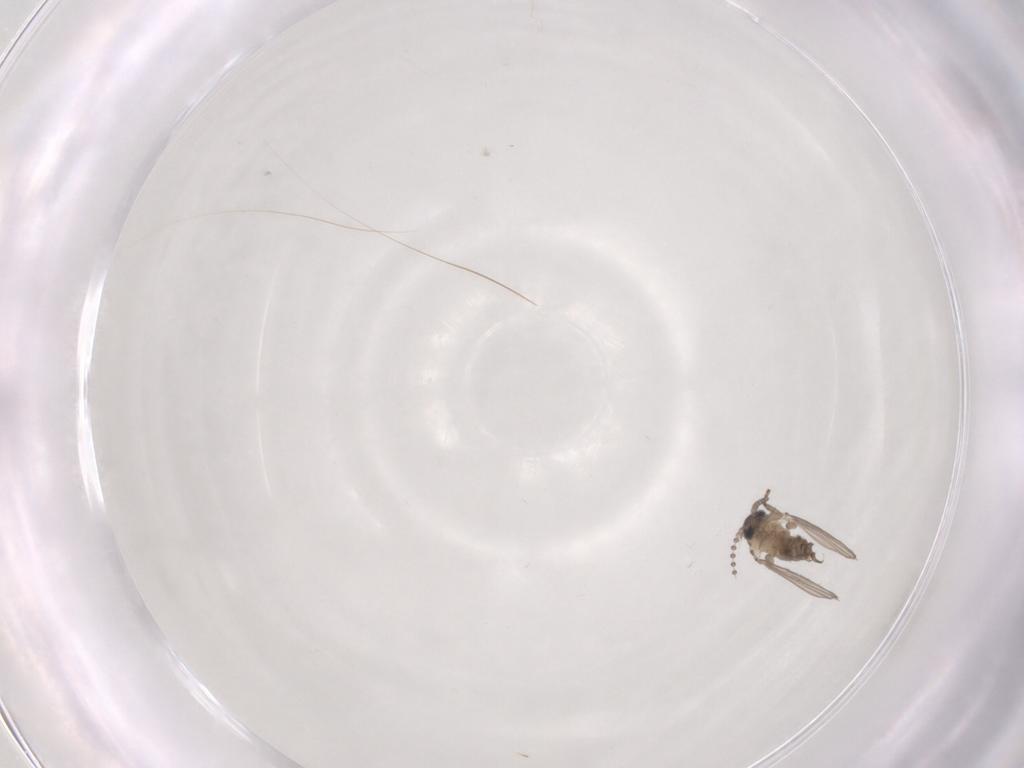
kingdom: Animalia
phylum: Arthropoda
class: Insecta
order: Diptera
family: Psychodidae
